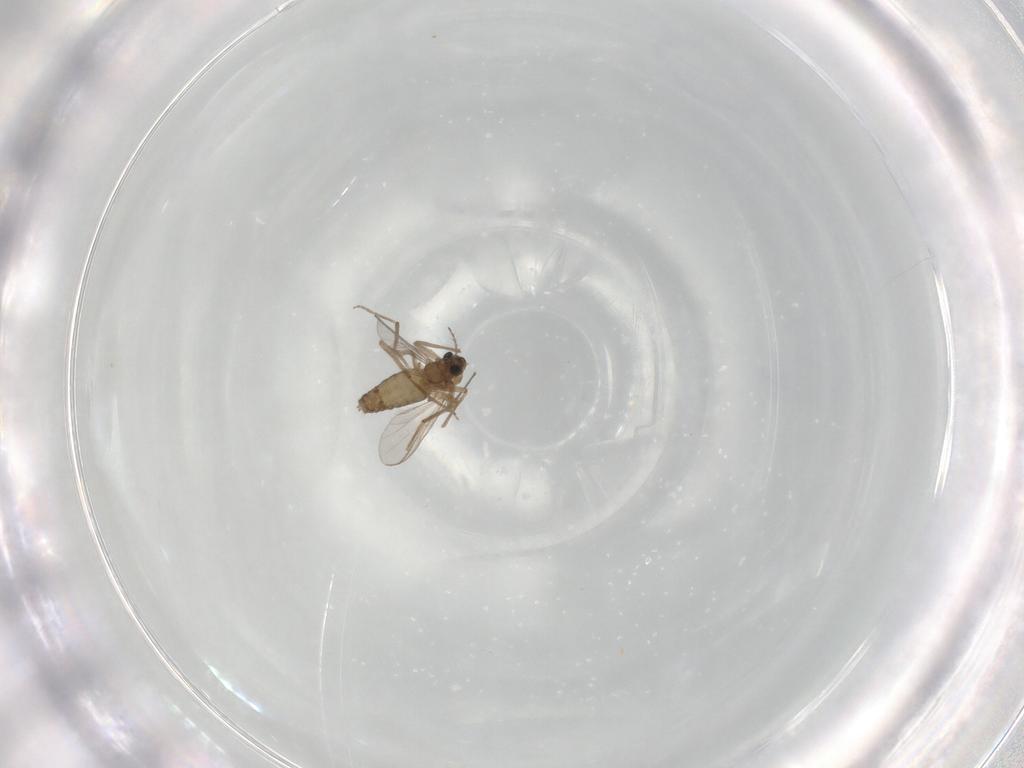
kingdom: Animalia
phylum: Arthropoda
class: Insecta
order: Diptera
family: Chironomidae
